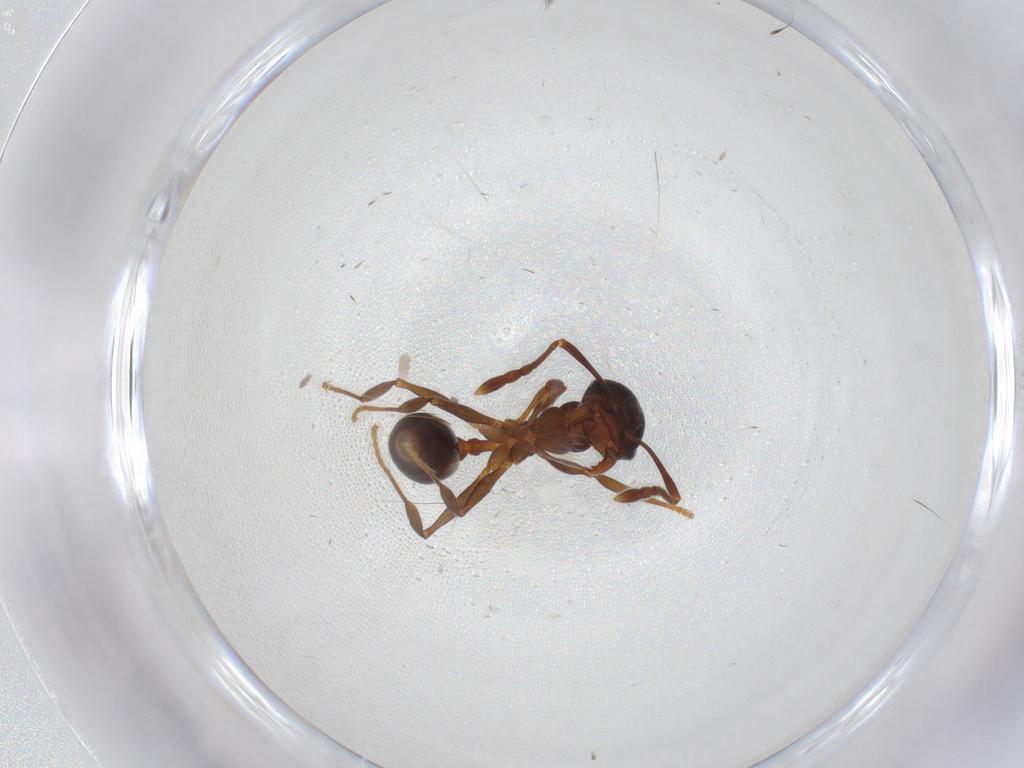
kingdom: Animalia
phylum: Arthropoda
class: Insecta
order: Hymenoptera
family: Formicidae
